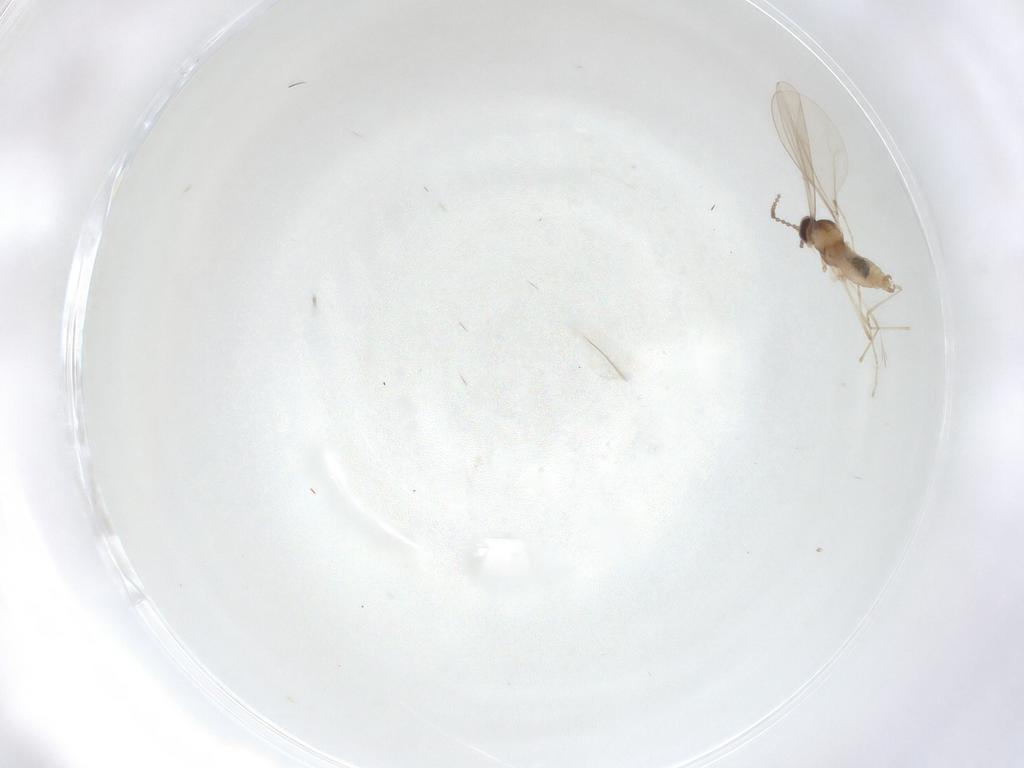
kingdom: Animalia
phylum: Arthropoda
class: Insecta
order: Diptera
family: Cecidomyiidae
